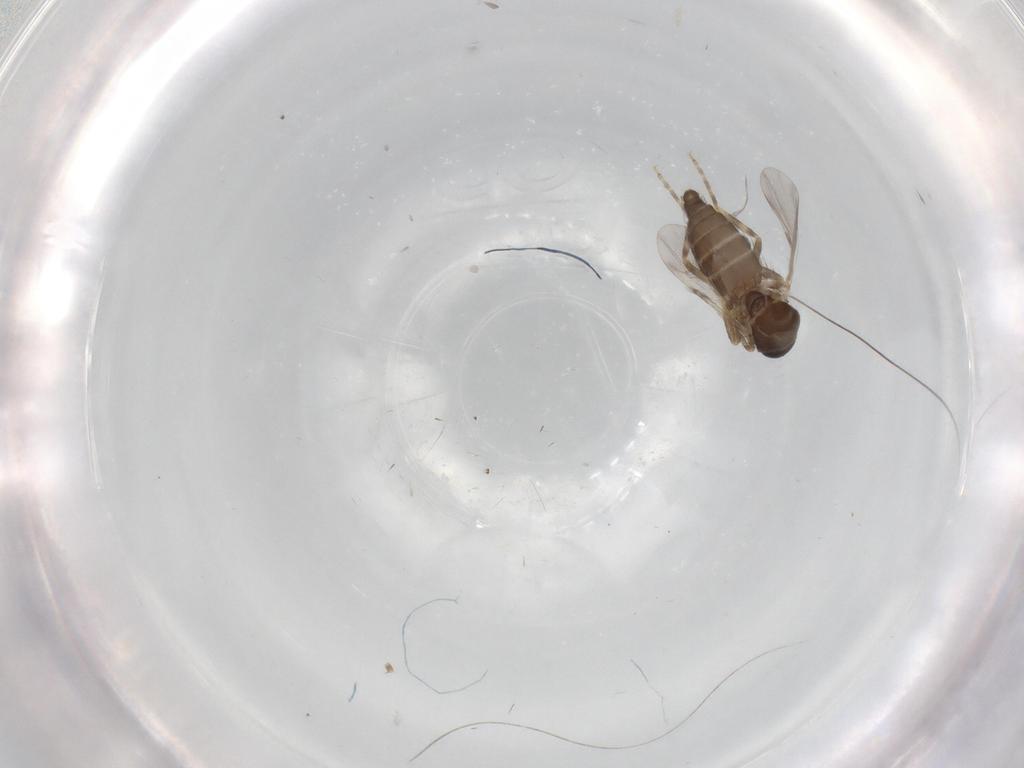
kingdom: Animalia
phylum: Arthropoda
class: Insecta
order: Diptera
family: Ceratopogonidae
